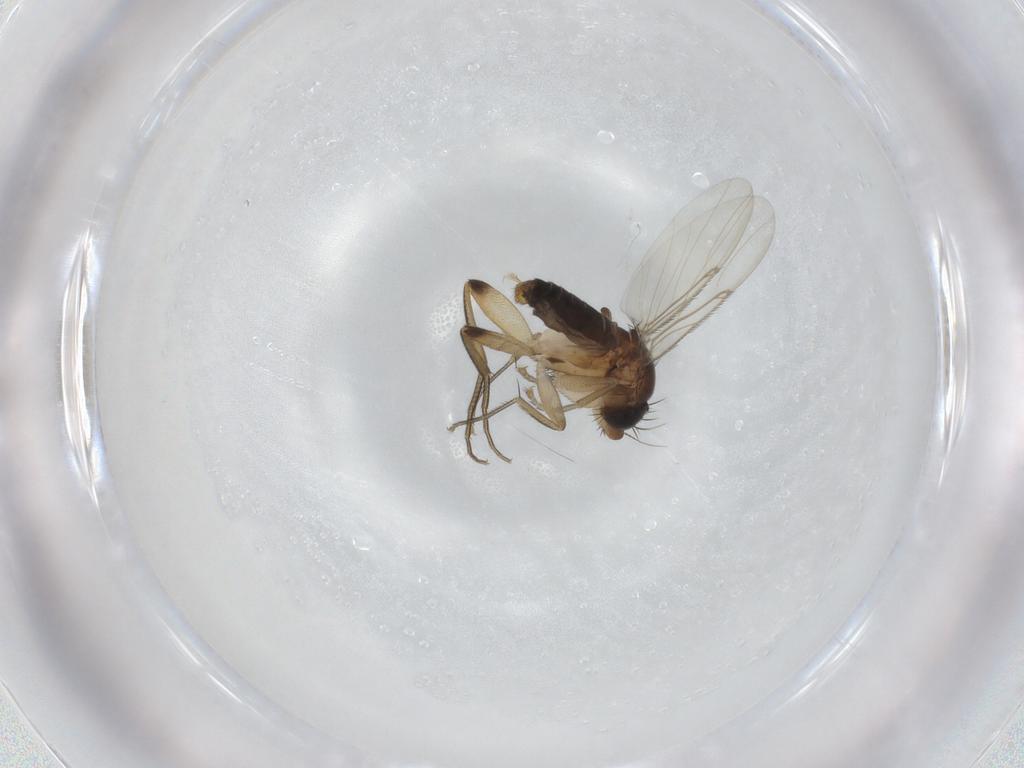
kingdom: Animalia
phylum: Arthropoda
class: Insecta
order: Diptera
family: Phoridae
